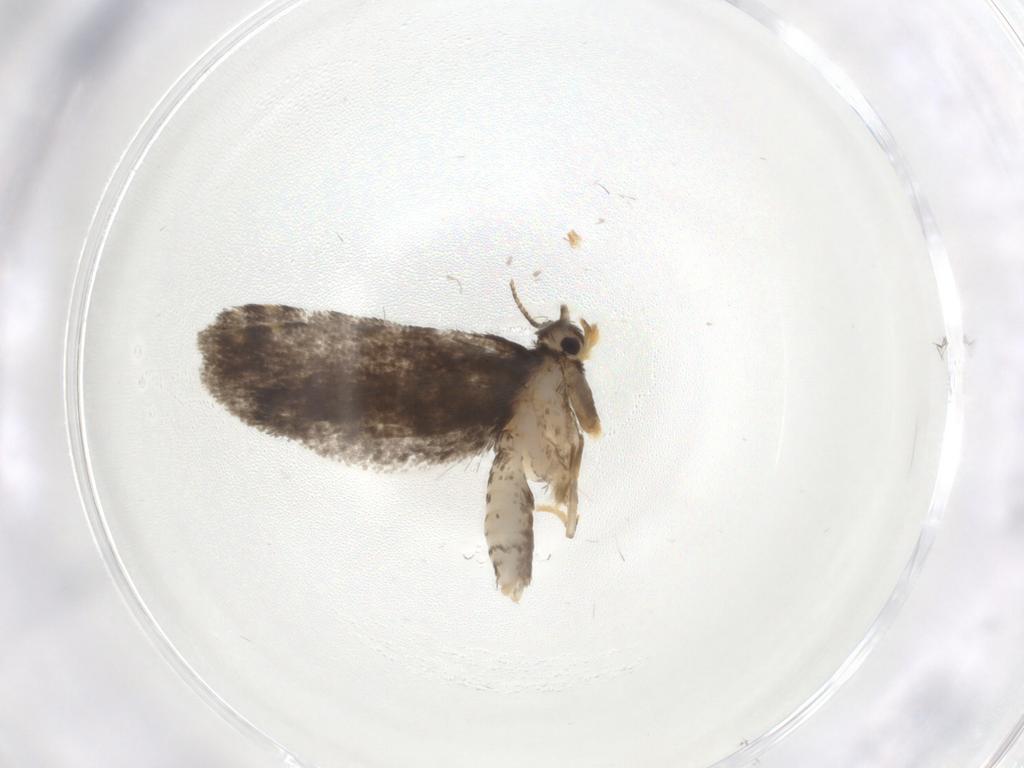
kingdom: Animalia
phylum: Arthropoda
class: Insecta
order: Lepidoptera
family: Psychidae
